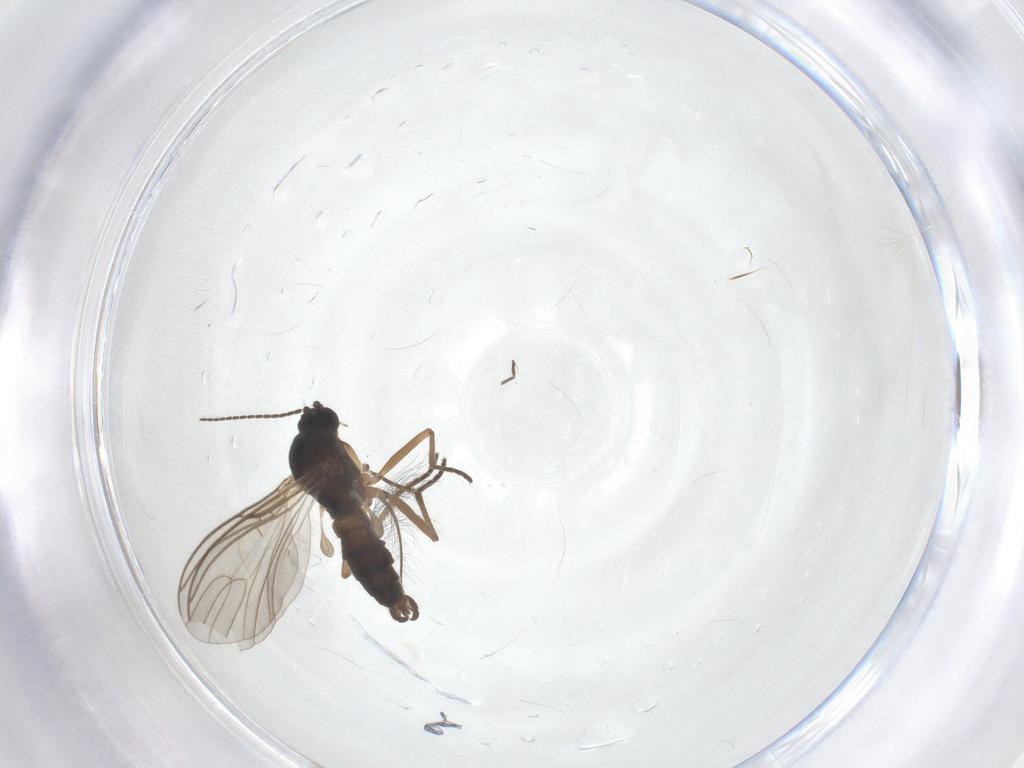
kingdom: Animalia
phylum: Arthropoda
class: Insecta
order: Diptera
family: Sciaridae
